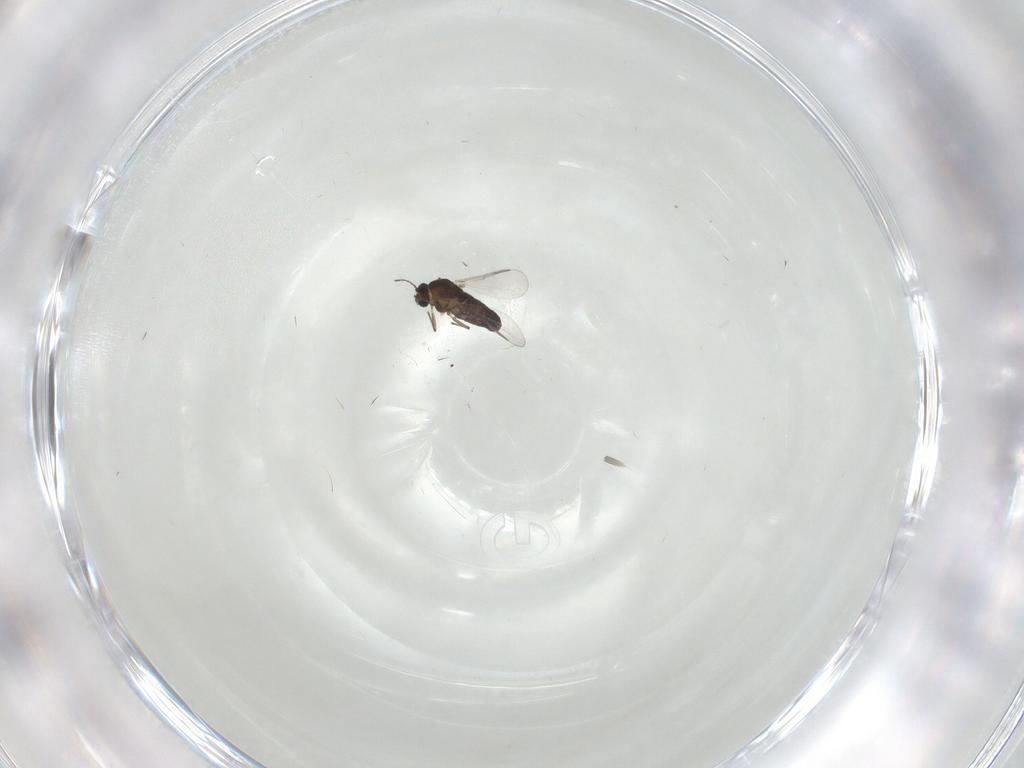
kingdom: Animalia
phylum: Arthropoda
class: Insecta
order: Diptera
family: Chironomidae
